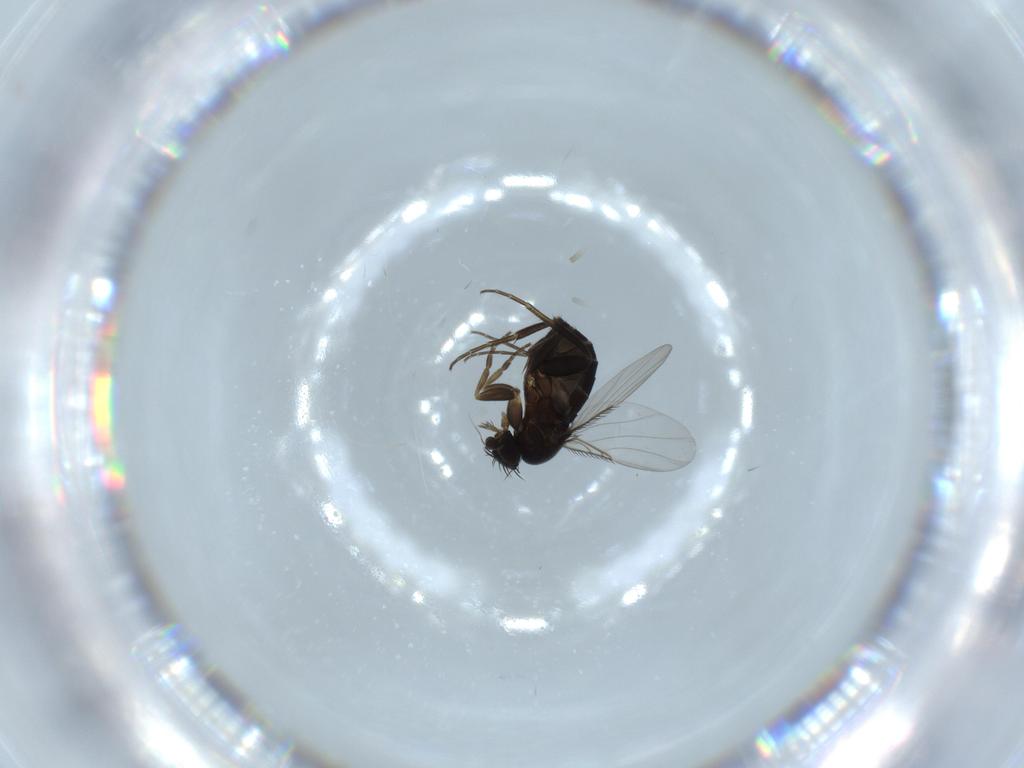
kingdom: Animalia
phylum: Arthropoda
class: Insecta
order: Diptera
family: Phoridae
